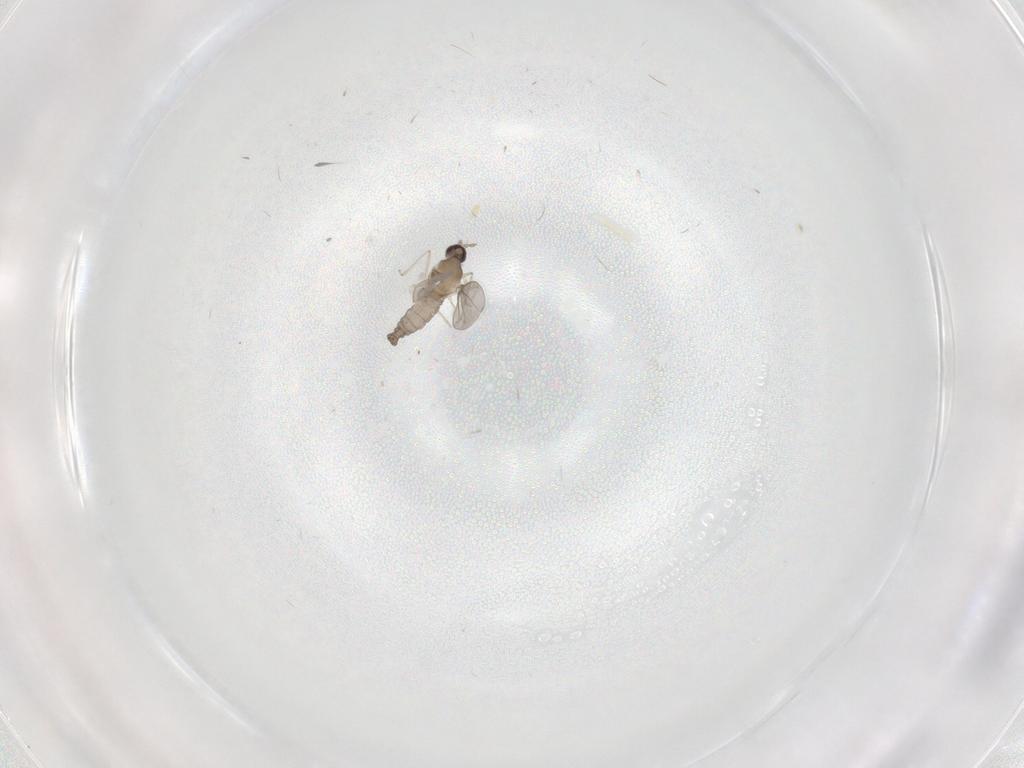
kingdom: Animalia
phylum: Arthropoda
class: Insecta
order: Diptera
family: Cecidomyiidae
